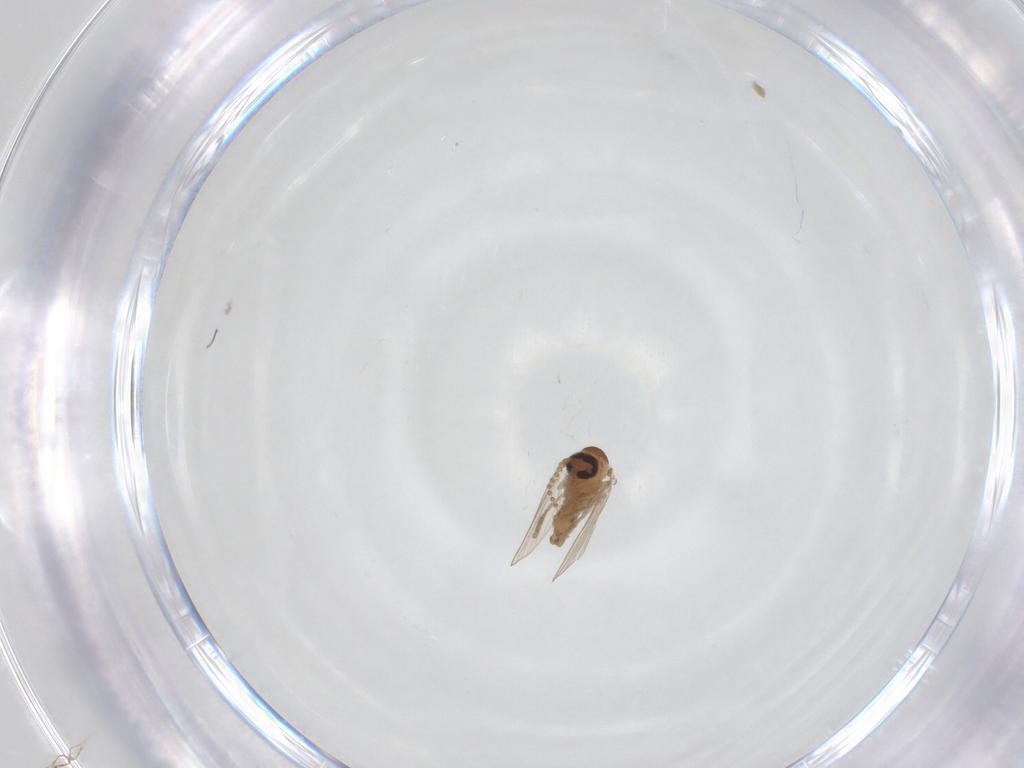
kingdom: Animalia
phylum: Arthropoda
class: Insecta
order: Diptera
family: Psychodidae
